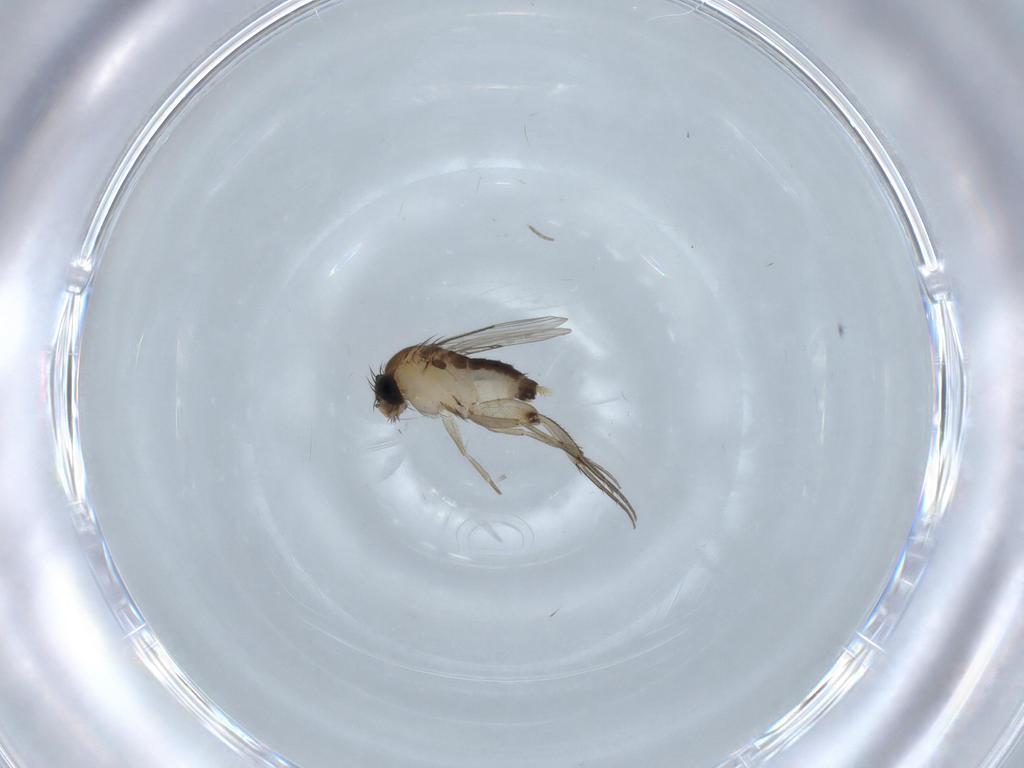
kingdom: Animalia
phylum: Arthropoda
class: Insecta
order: Diptera
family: Phoridae
